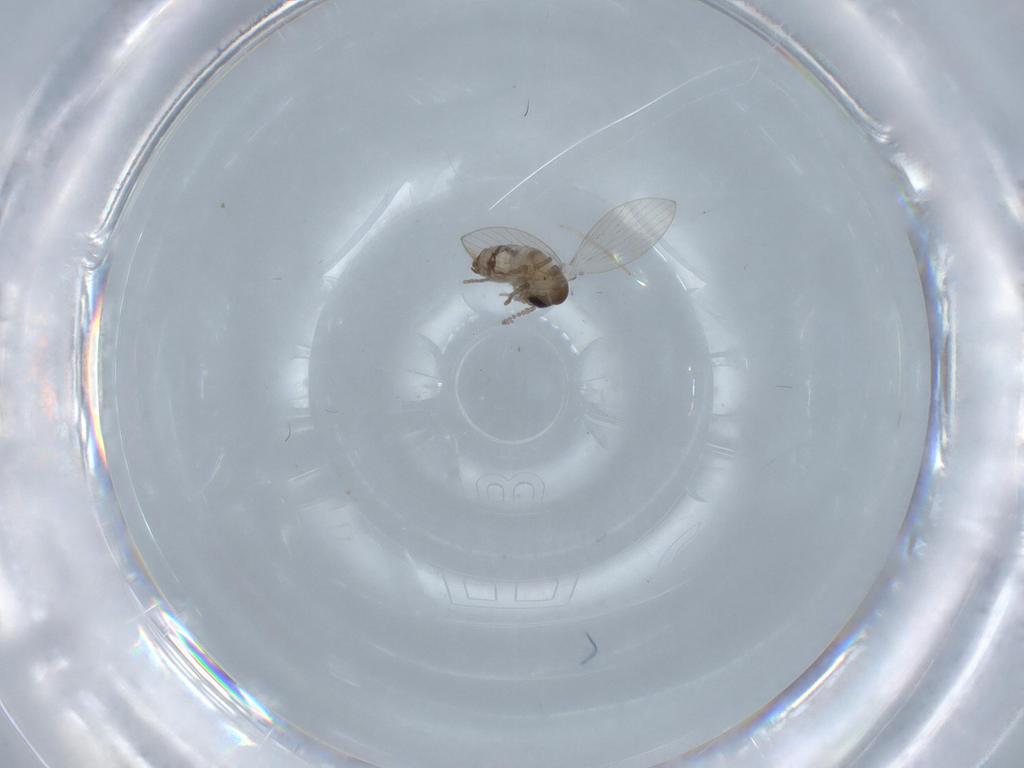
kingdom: Animalia
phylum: Arthropoda
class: Insecta
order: Diptera
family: Psychodidae
